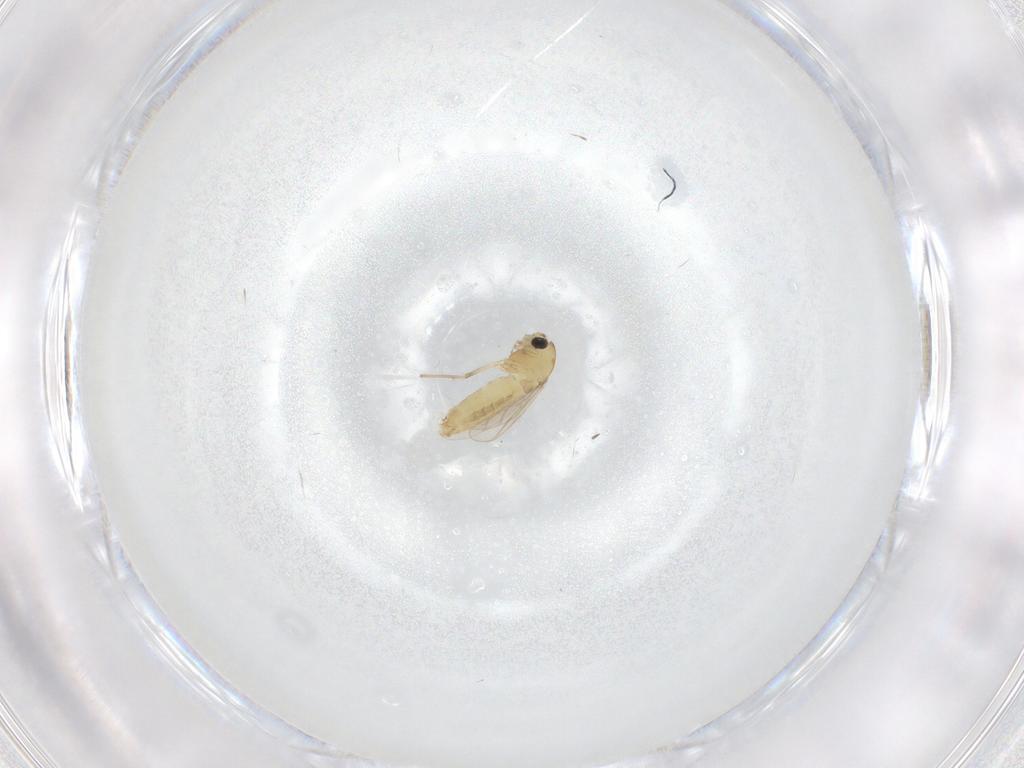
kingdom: Animalia
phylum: Arthropoda
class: Insecta
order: Diptera
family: Chironomidae
